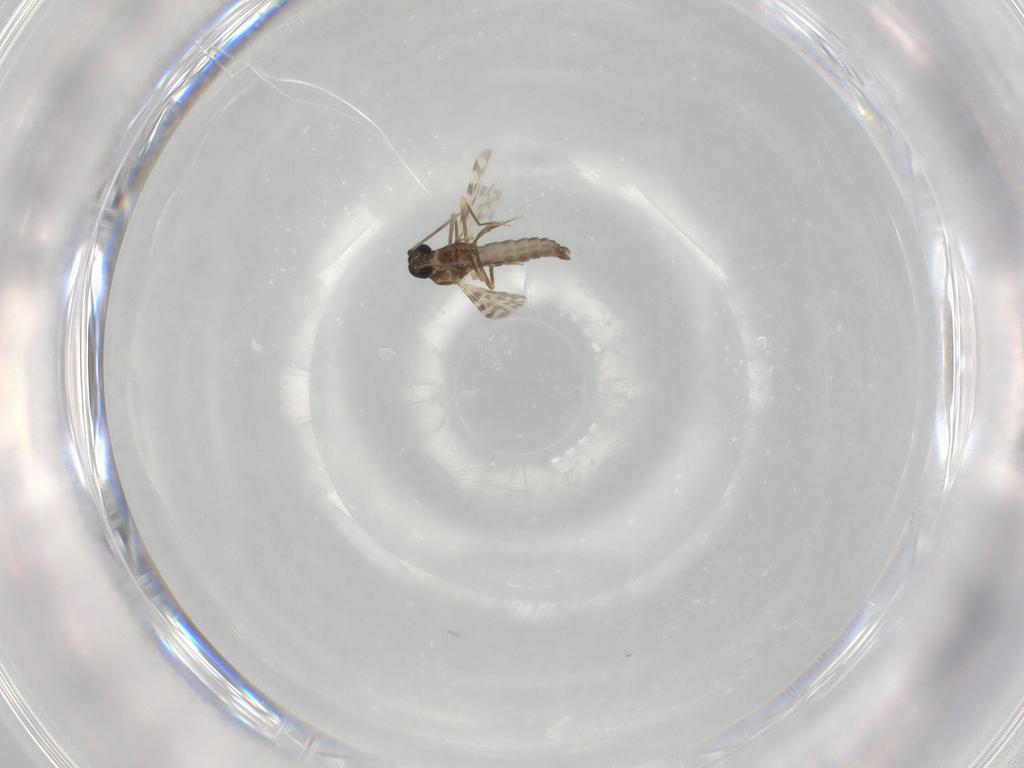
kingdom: Animalia
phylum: Arthropoda
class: Insecta
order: Diptera
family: Ceratopogonidae
